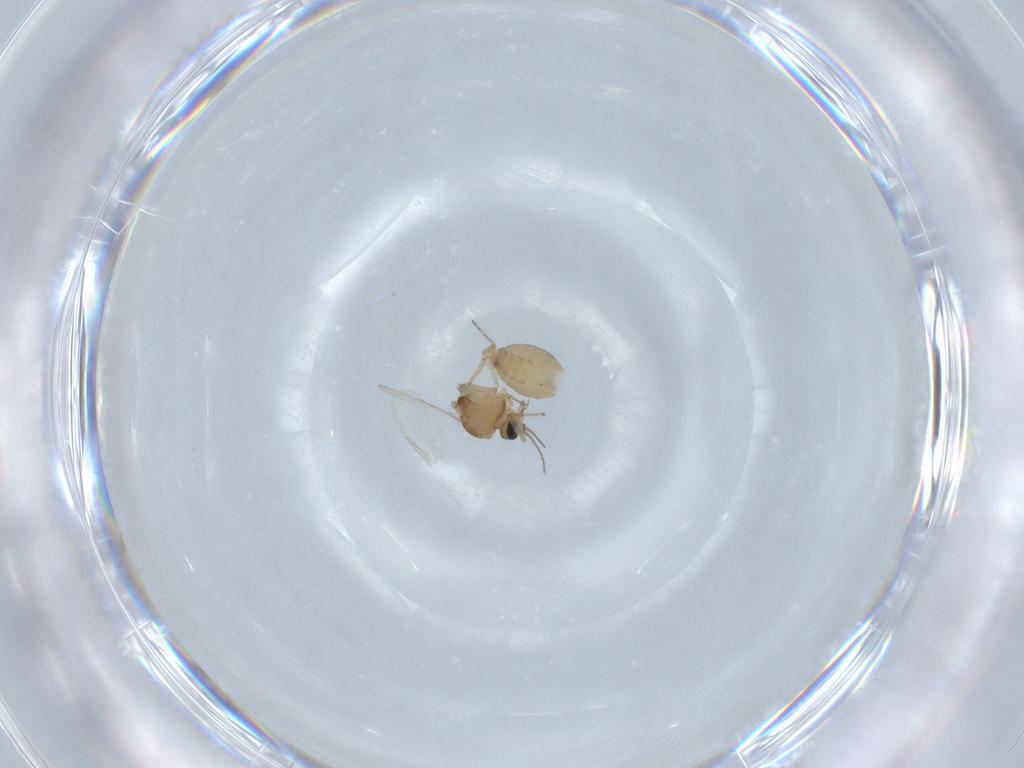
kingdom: Animalia
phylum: Arthropoda
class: Insecta
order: Diptera
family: Ceratopogonidae
